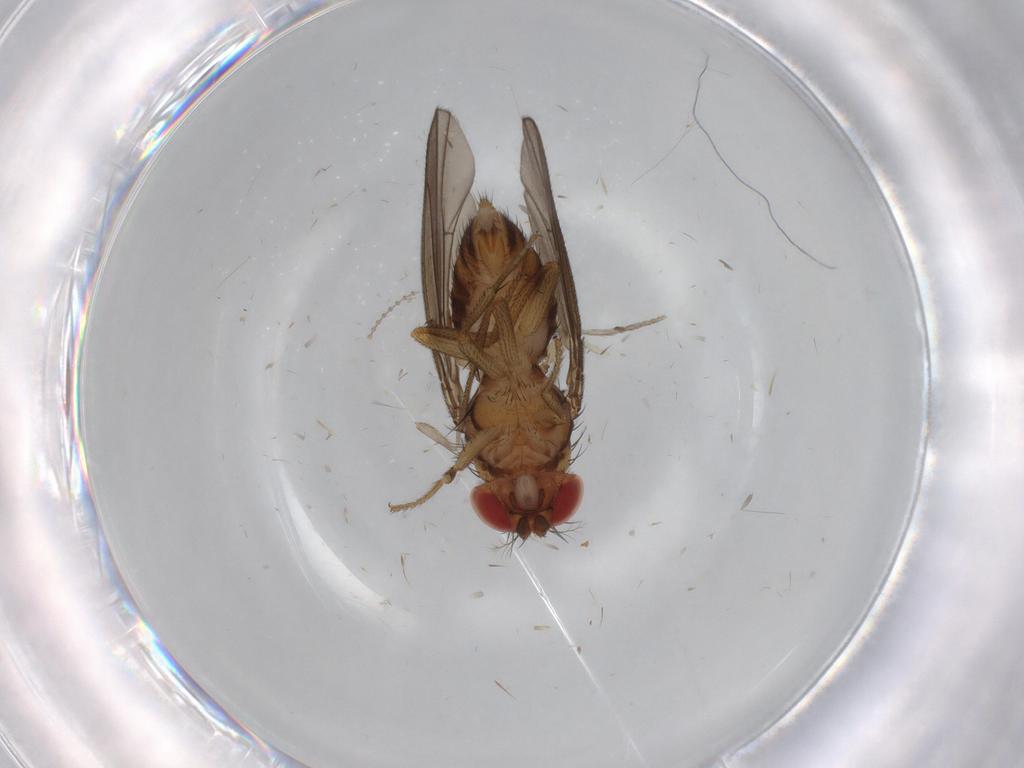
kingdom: Animalia
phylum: Arthropoda
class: Insecta
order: Diptera
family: Drosophilidae
